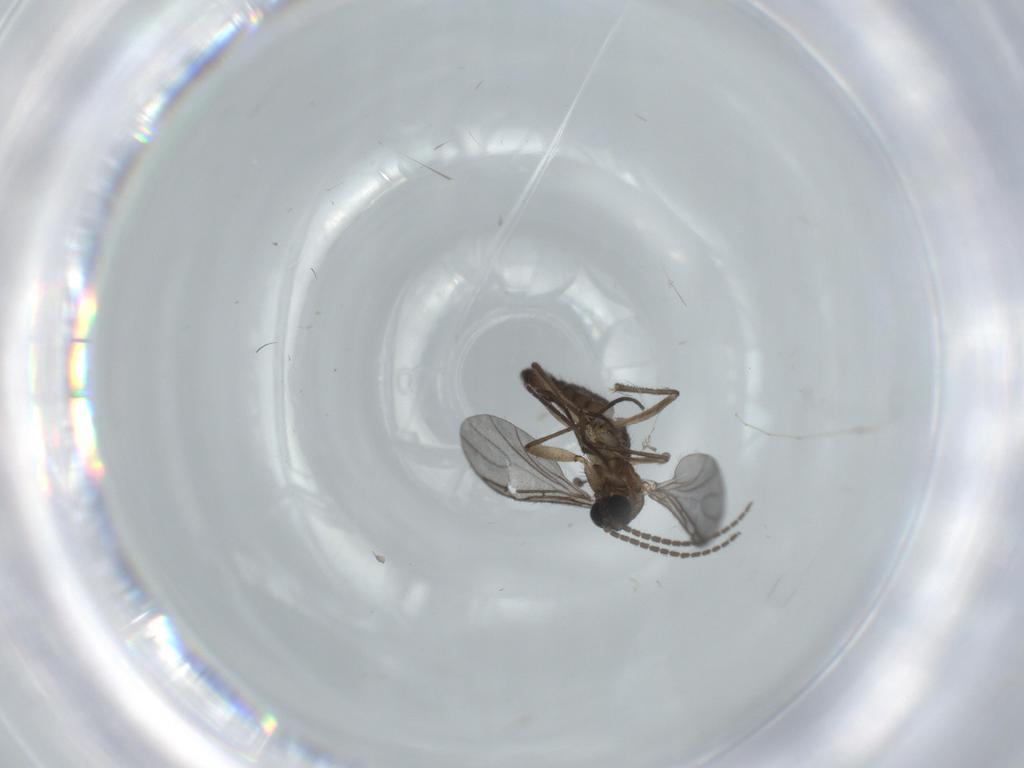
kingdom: Animalia
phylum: Arthropoda
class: Insecta
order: Diptera
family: Sciaridae
